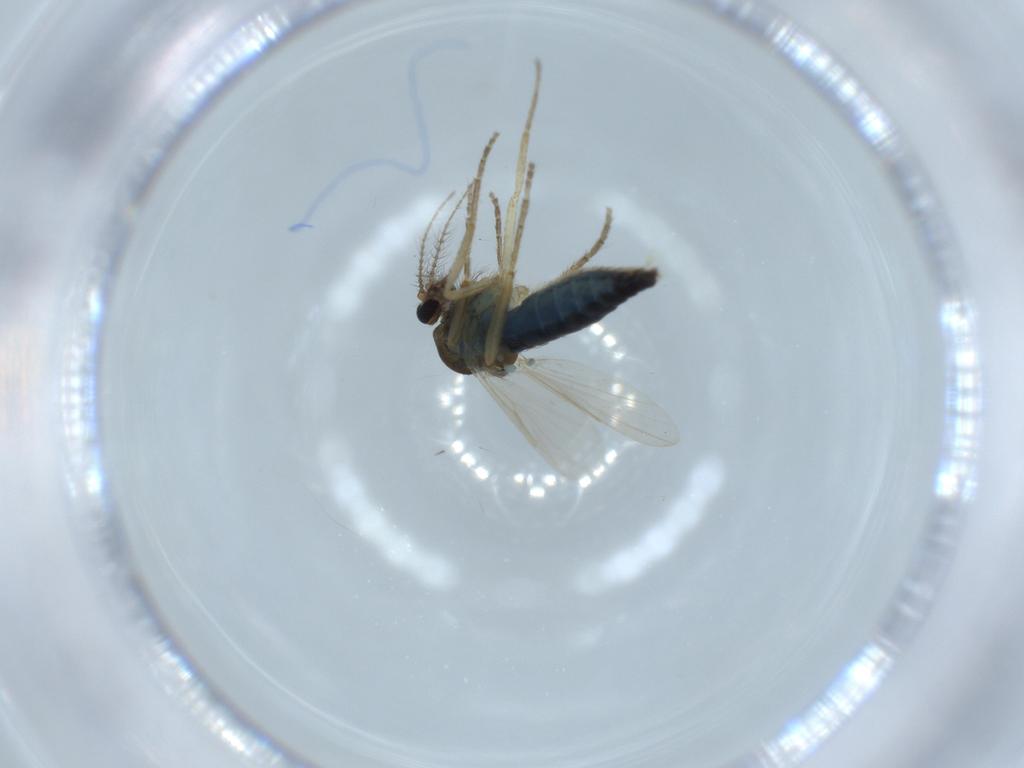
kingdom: Animalia
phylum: Arthropoda
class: Insecta
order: Diptera
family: Ceratopogonidae
